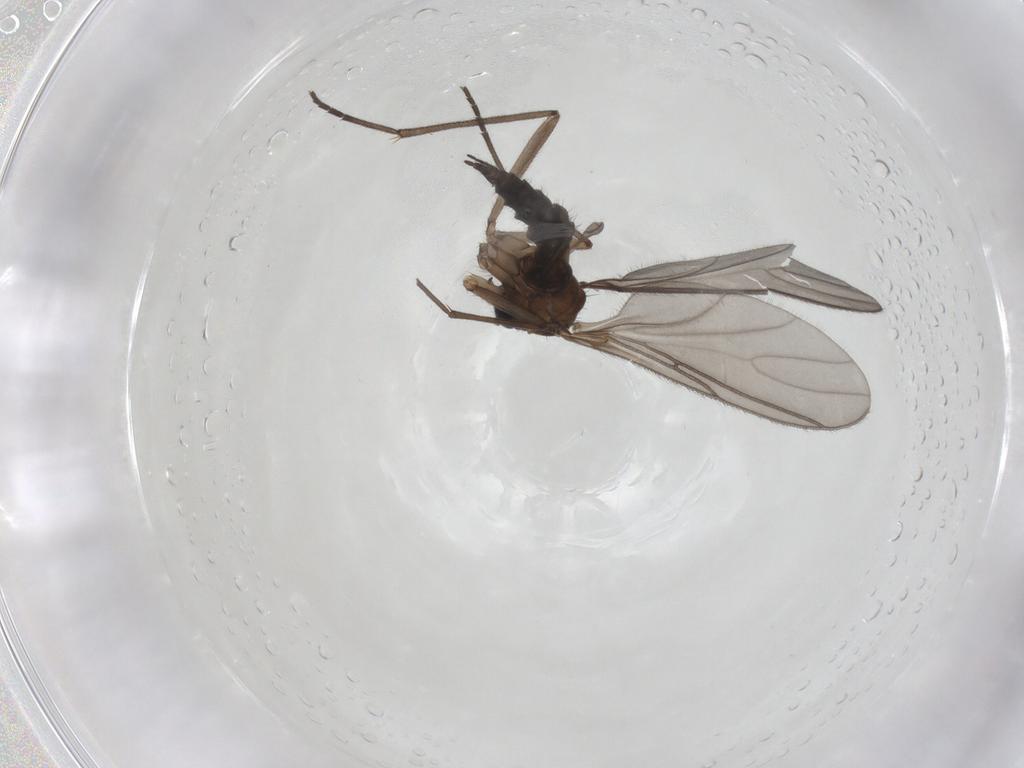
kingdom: Animalia
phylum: Arthropoda
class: Insecta
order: Diptera
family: Sciaridae
